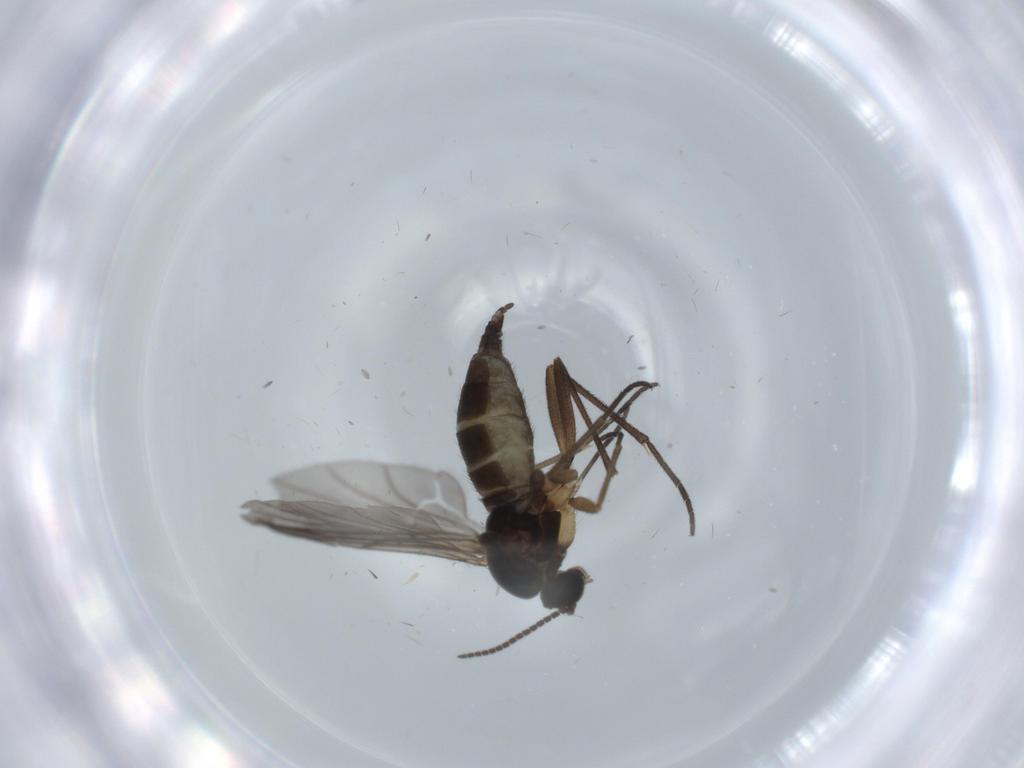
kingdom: Animalia
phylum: Arthropoda
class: Insecta
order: Diptera
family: Sciaridae
